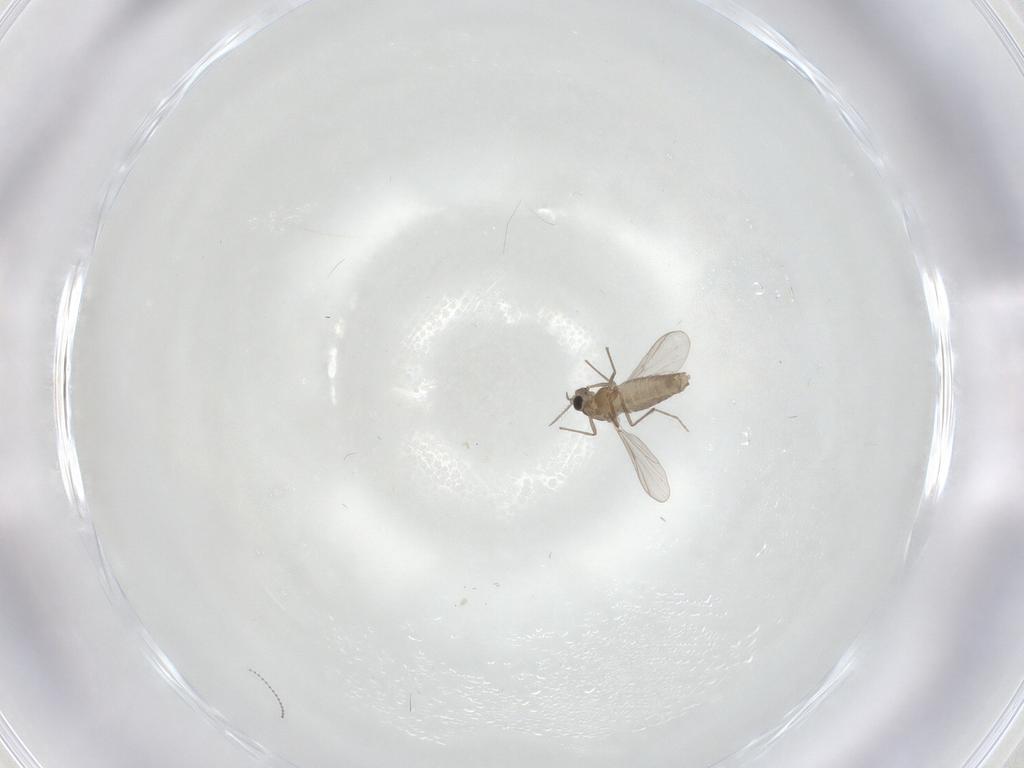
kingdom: Animalia
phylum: Arthropoda
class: Insecta
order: Diptera
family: Chironomidae
